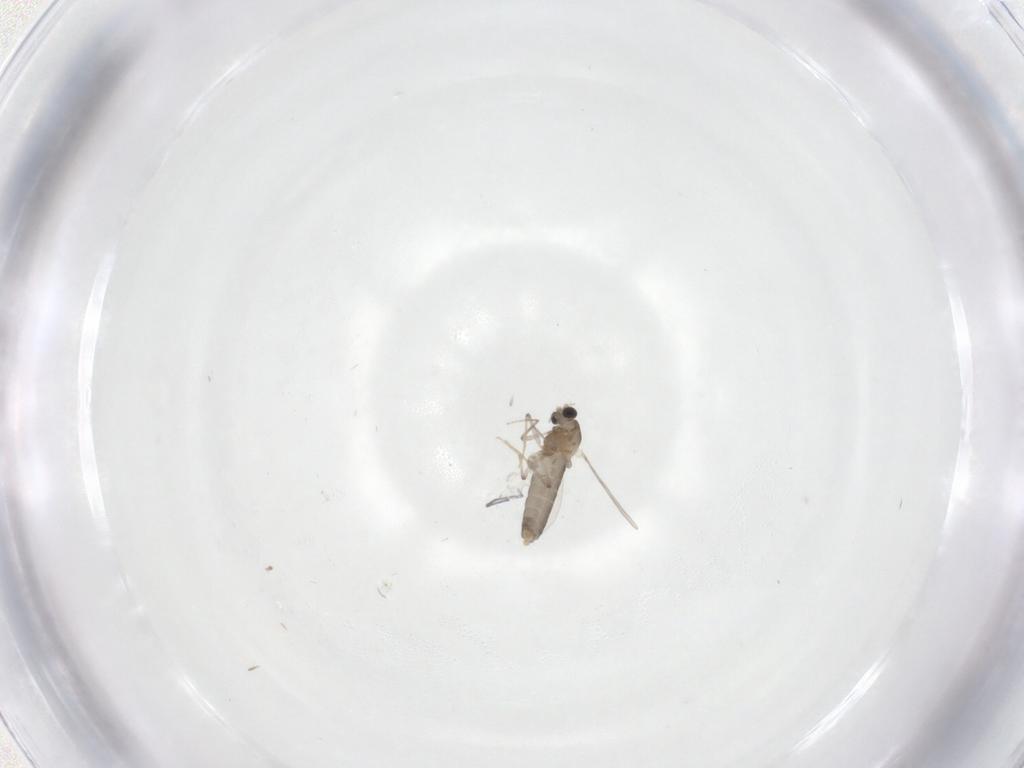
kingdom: Animalia
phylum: Arthropoda
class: Insecta
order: Diptera
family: Chironomidae
